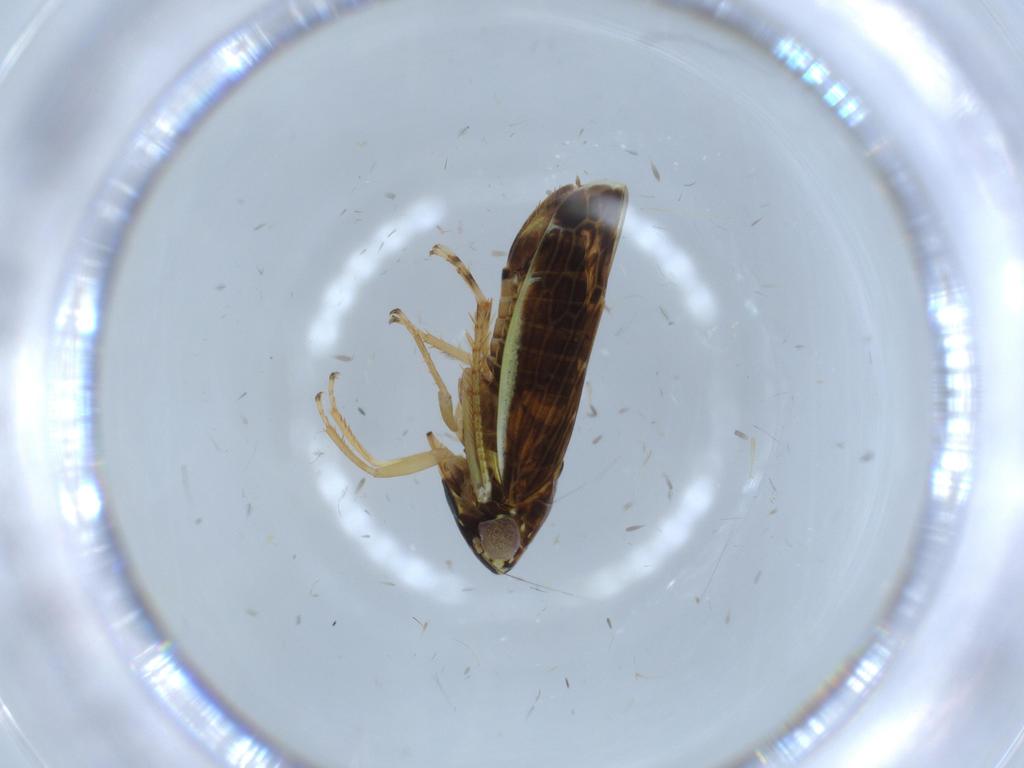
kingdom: Animalia
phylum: Arthropoda
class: Insecta
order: Hemiptera
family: Cicadellidae
